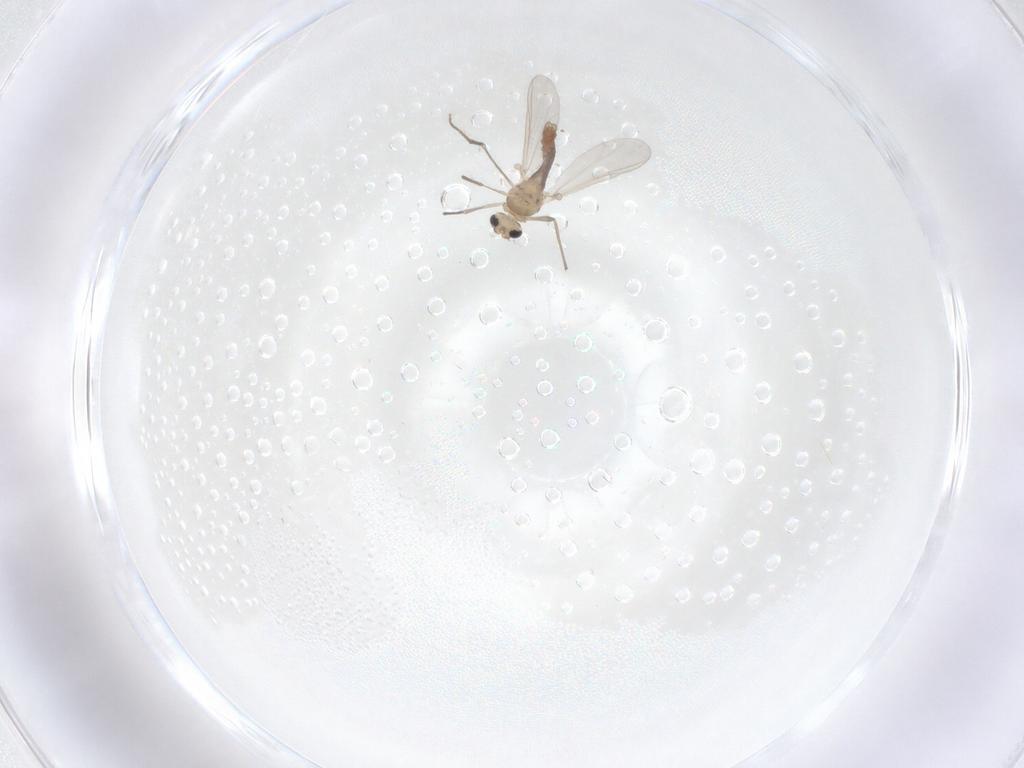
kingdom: Animalia
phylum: Arthropoda
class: Insecta
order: Diptera
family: Chironomidae
